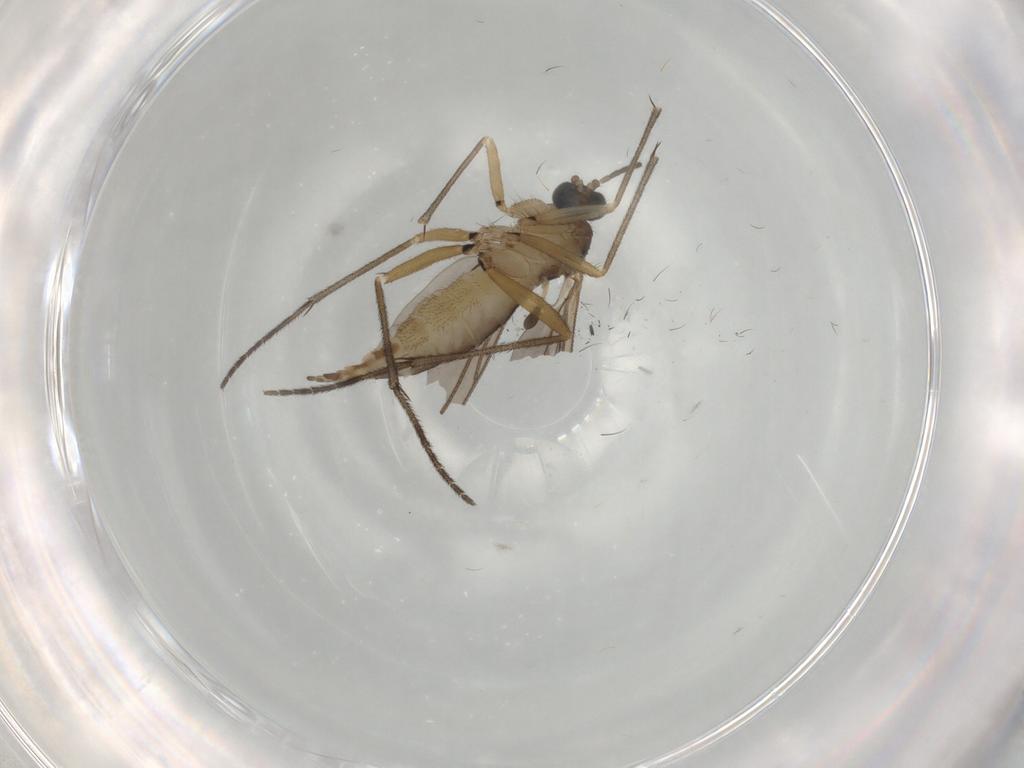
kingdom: Animalia
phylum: Arthropoda
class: Insecta
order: Diptera
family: Sciaridae
